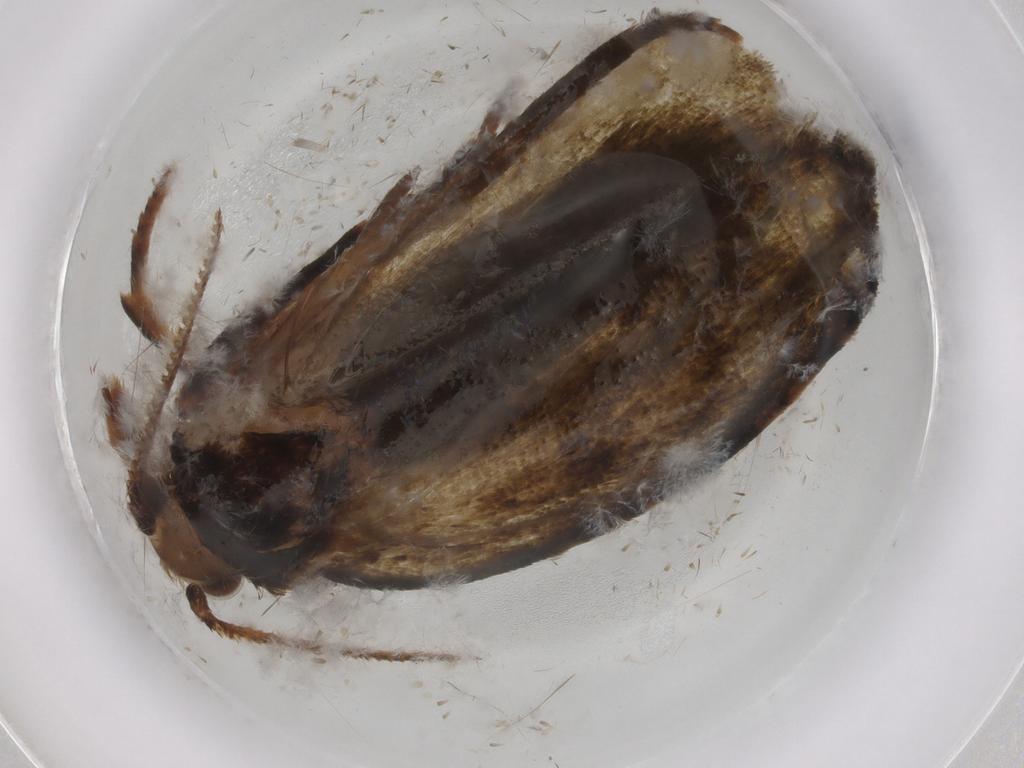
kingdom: Animalia
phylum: Arthropoda
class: Insecta
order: Lepidoptera
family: Geometridae
